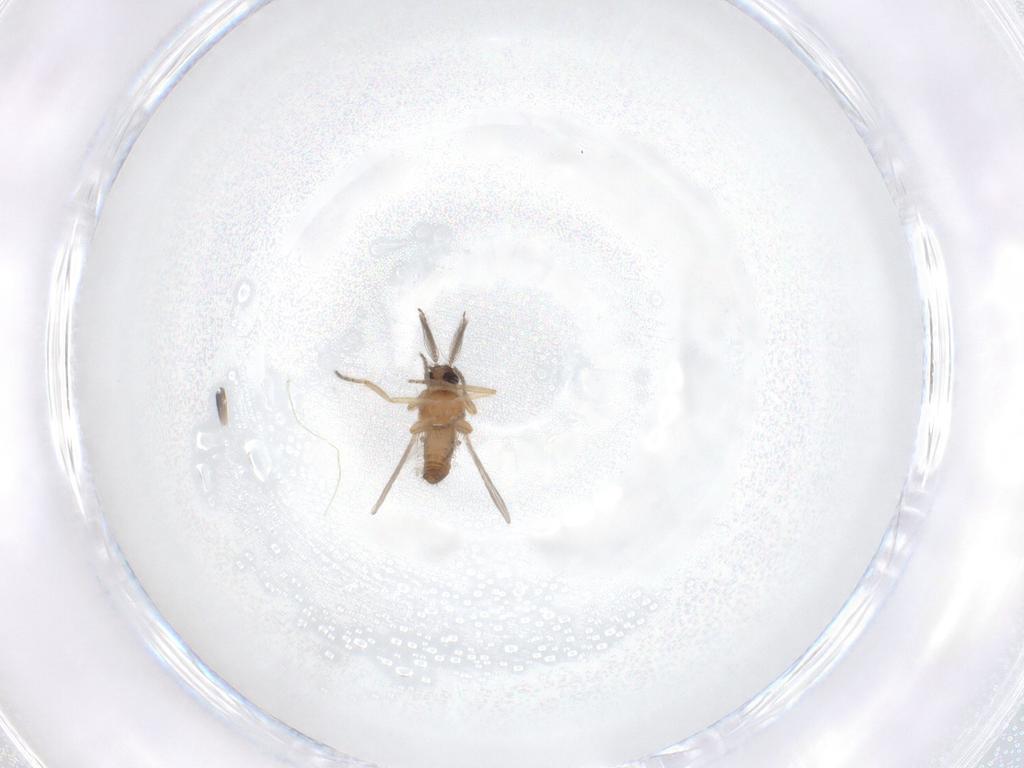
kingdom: Animalia
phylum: Arthropoda
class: Insecta
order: Diptera
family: Ceratopogonidae
